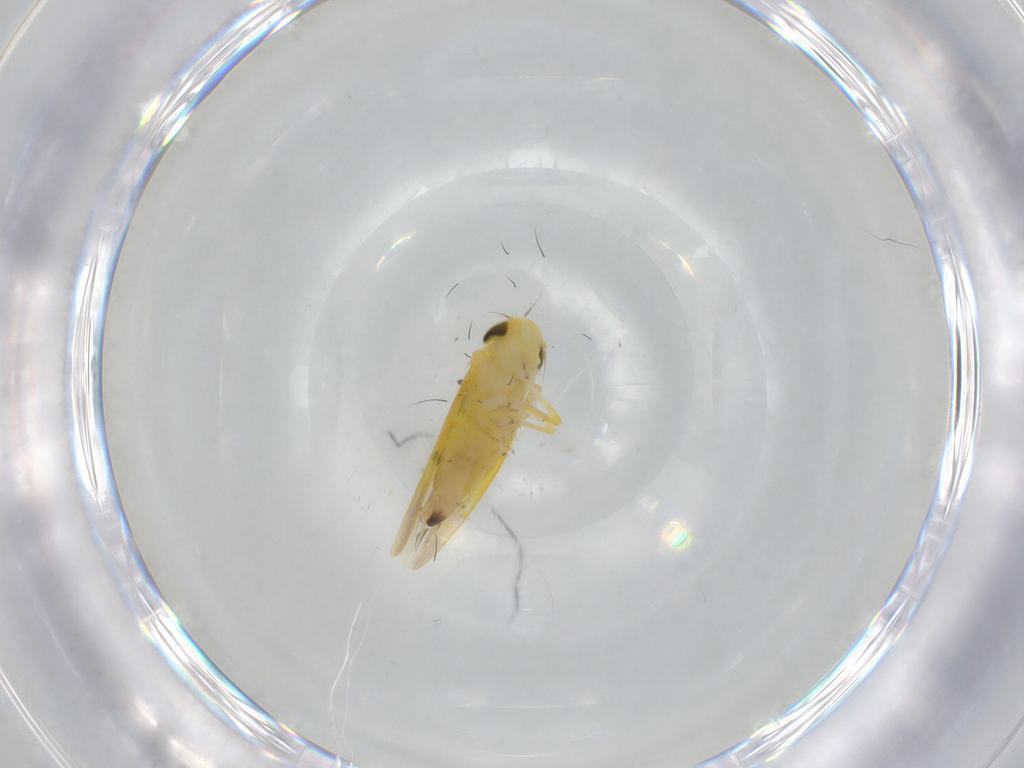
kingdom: Animalia
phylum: Arthropoda
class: Insecta
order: Hemiptera
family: Cicadellidae
